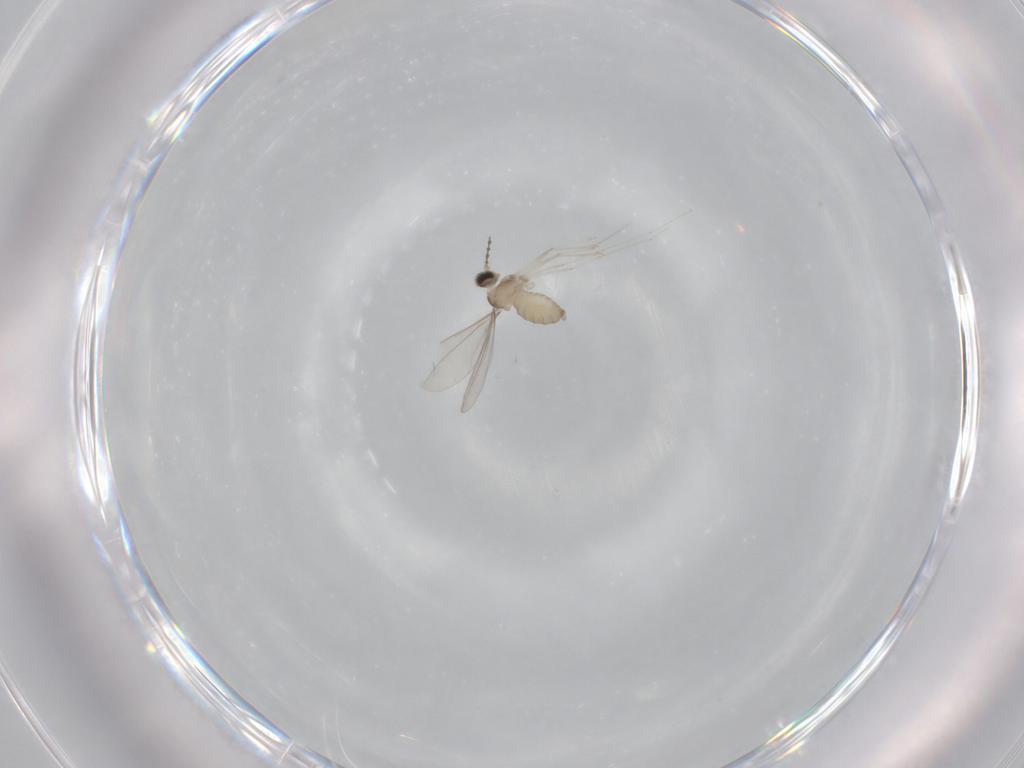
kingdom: Animalia
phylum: Arthropoda
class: Insecta
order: Diptera
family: Cecidomyiidae
